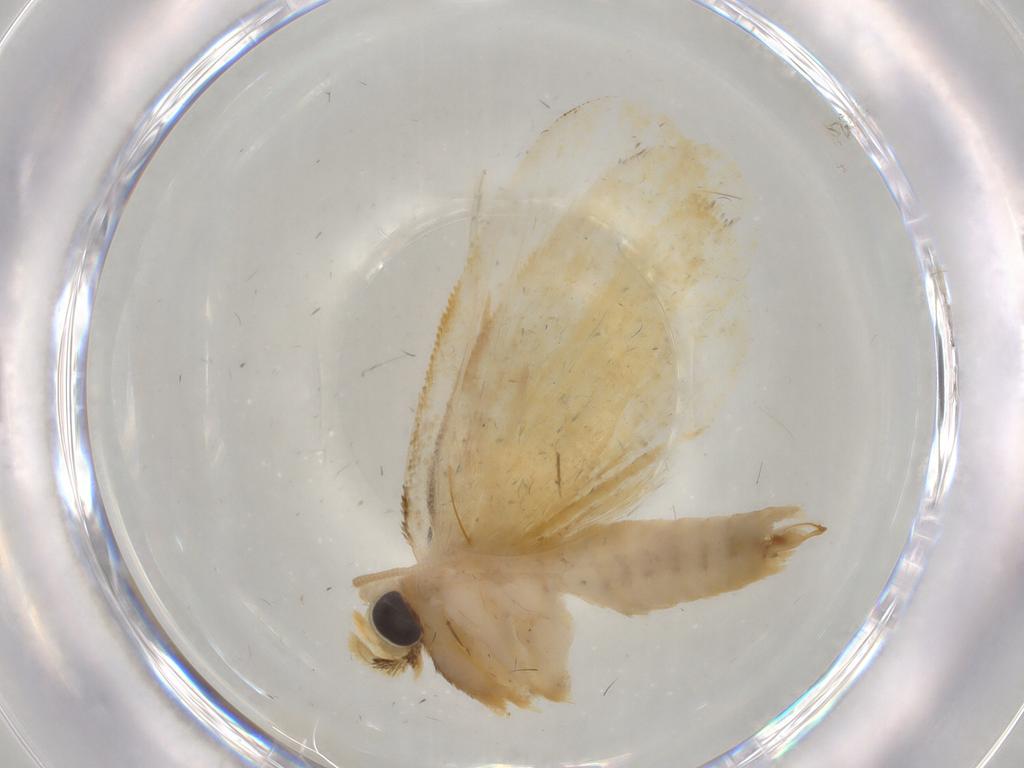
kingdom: Animalia
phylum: Arthropoda
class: Insecta
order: Lepidoptera
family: Psychidae
